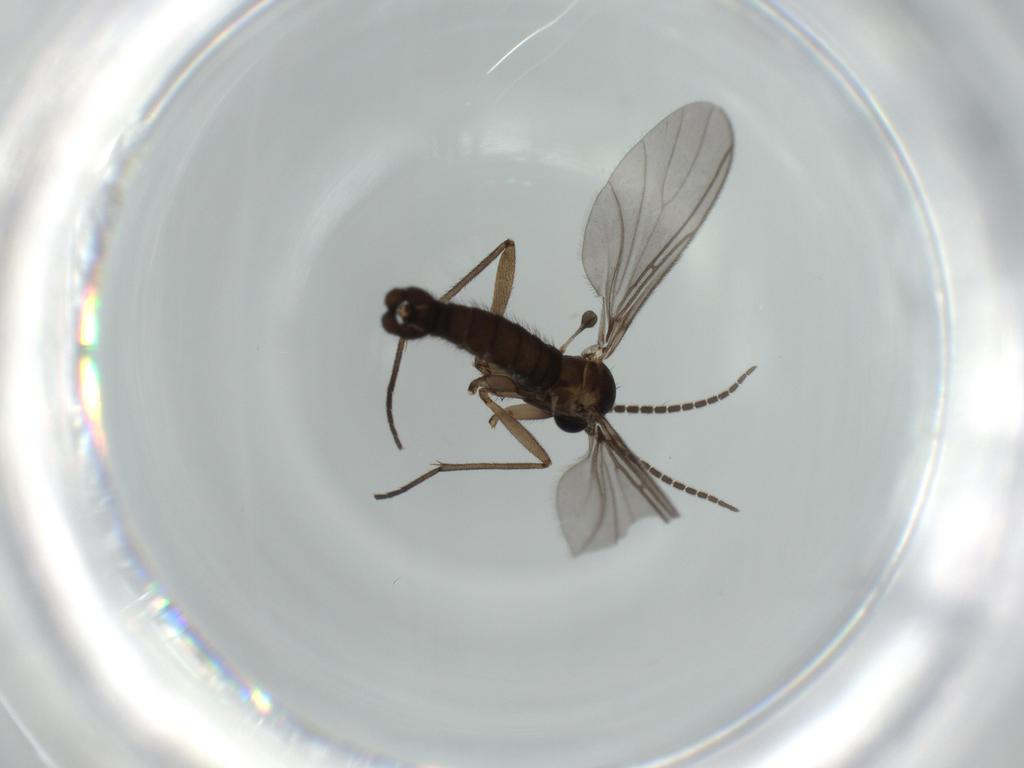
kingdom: Animalia
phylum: Arthropoda
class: Insecta
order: Diptera
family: Sciaridae
